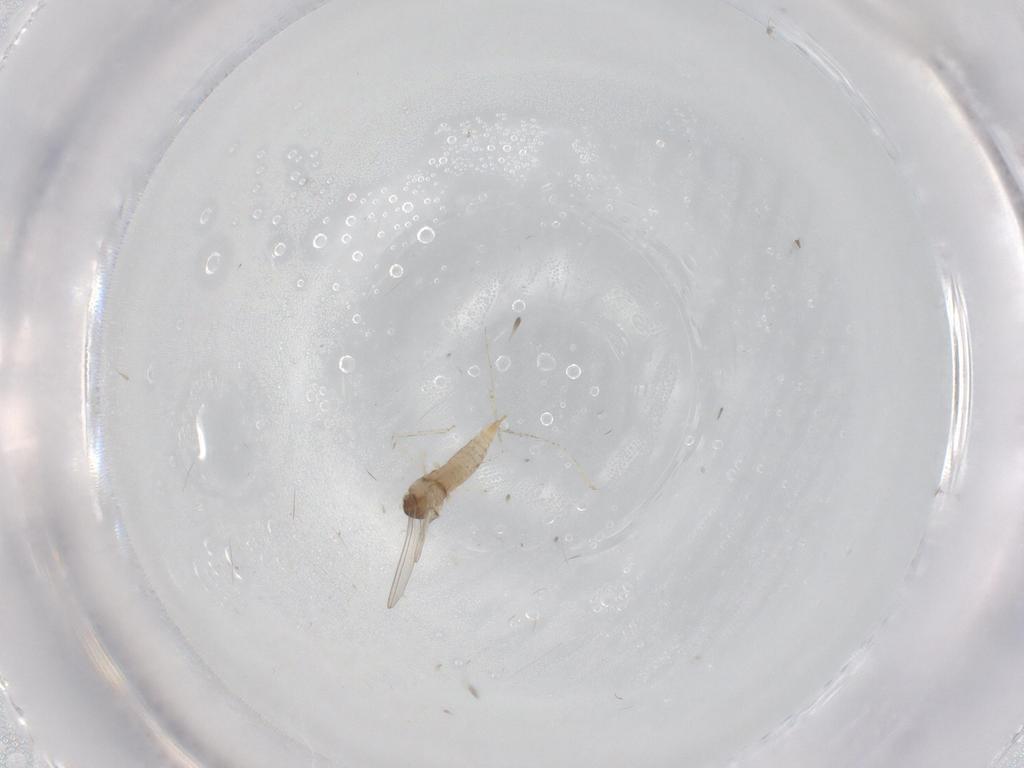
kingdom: Animalia
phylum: Arthropoda
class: Insecta
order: Diptera
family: Cecidomyiidae
